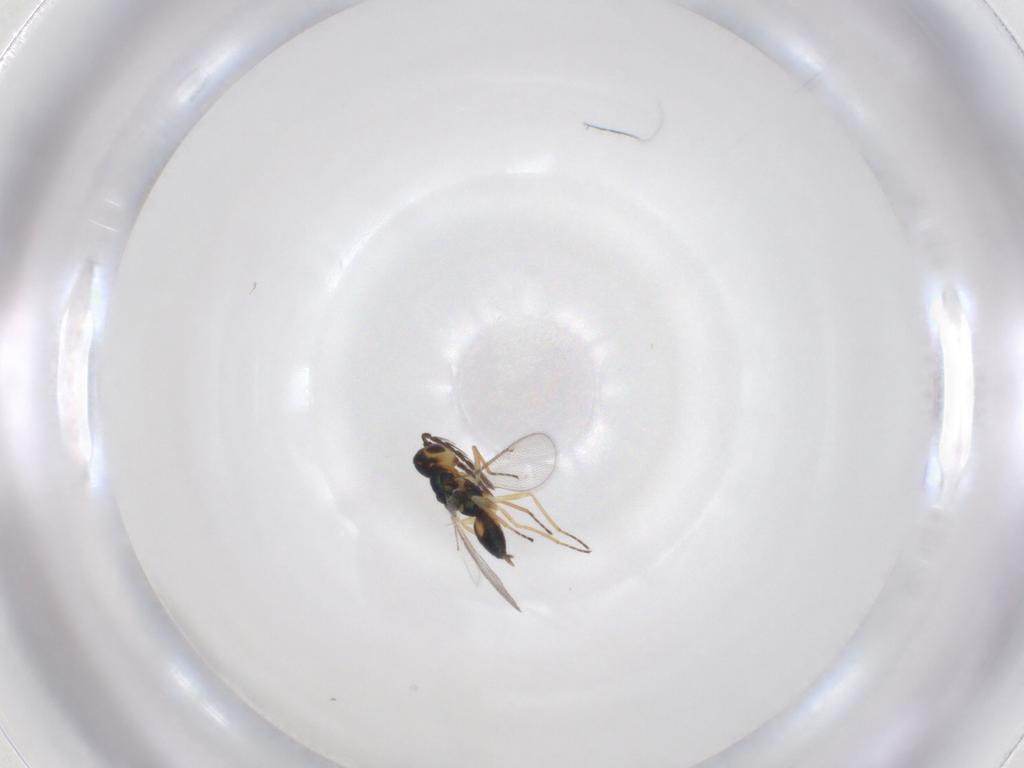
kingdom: Animalia
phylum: Arthropoda
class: Insecta
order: Hymenoptera
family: Eulophidae
